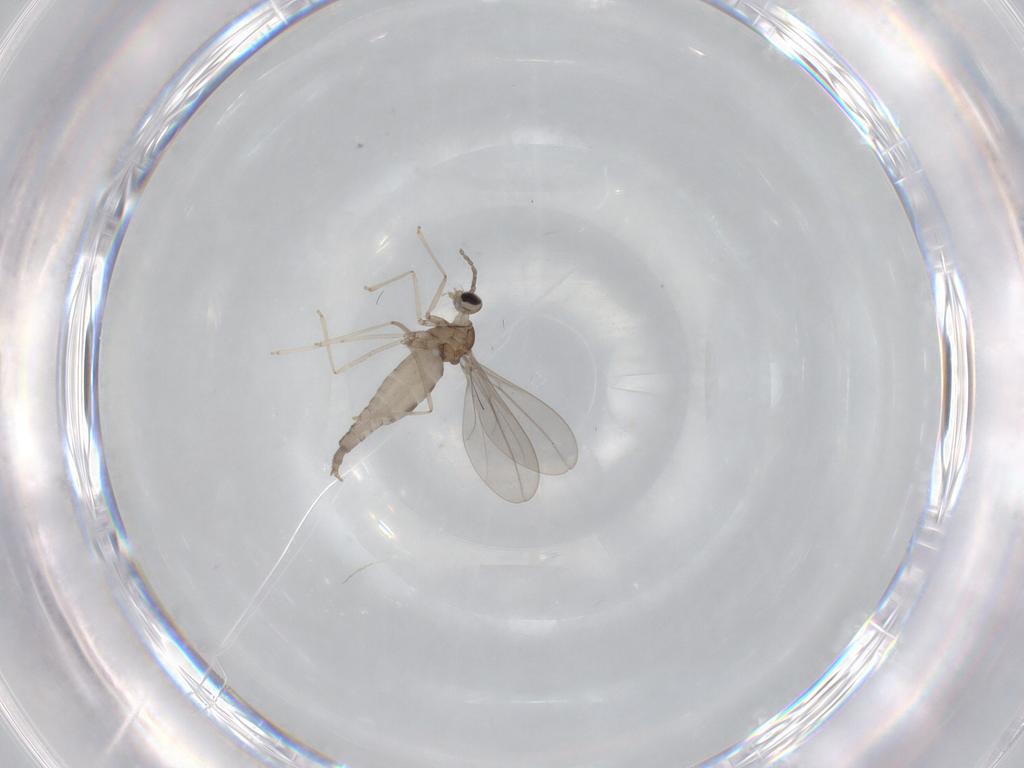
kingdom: Animalia
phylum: Arthropoda
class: Insecta
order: Diptera
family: Cecidomyiidae
